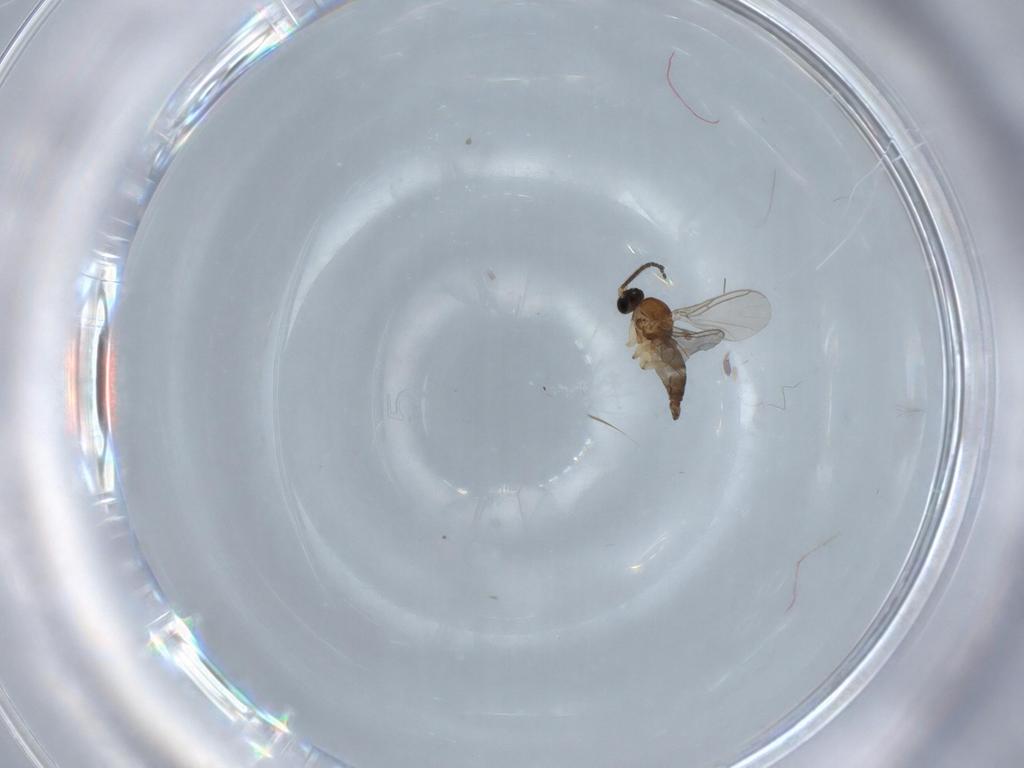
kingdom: Animalia
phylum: Arthropoda
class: Insecta
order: Diptera
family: Sciaridae
